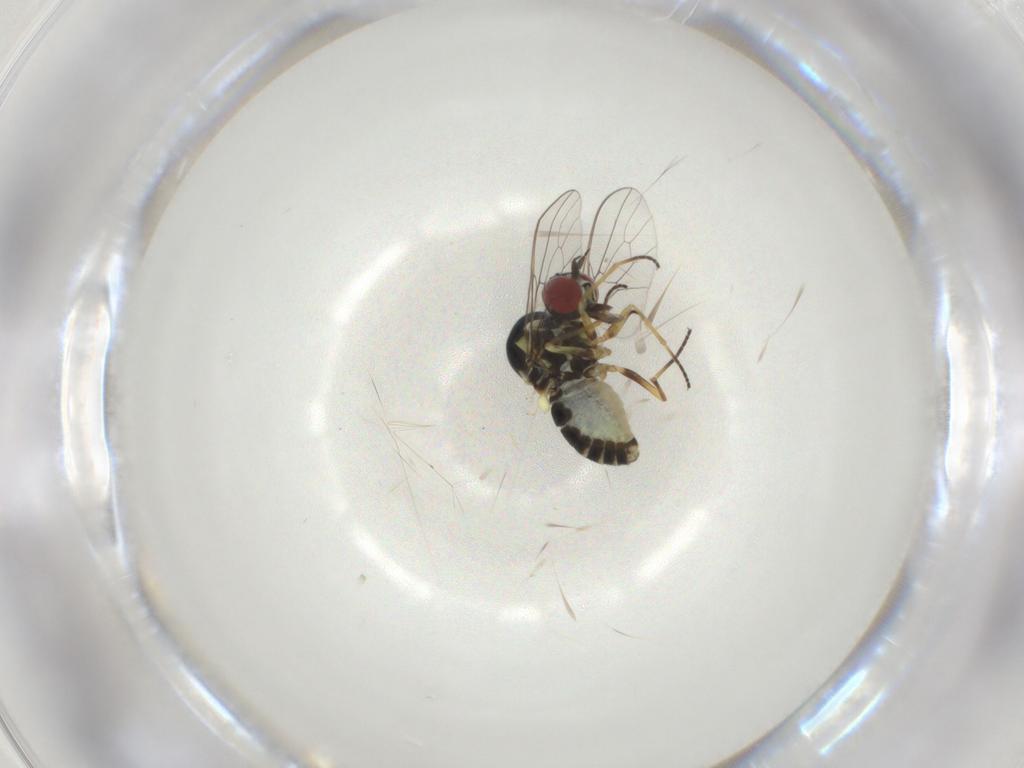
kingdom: Animalia
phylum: Arthropoda
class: Insecta
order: Diptera
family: Bombyliidae
